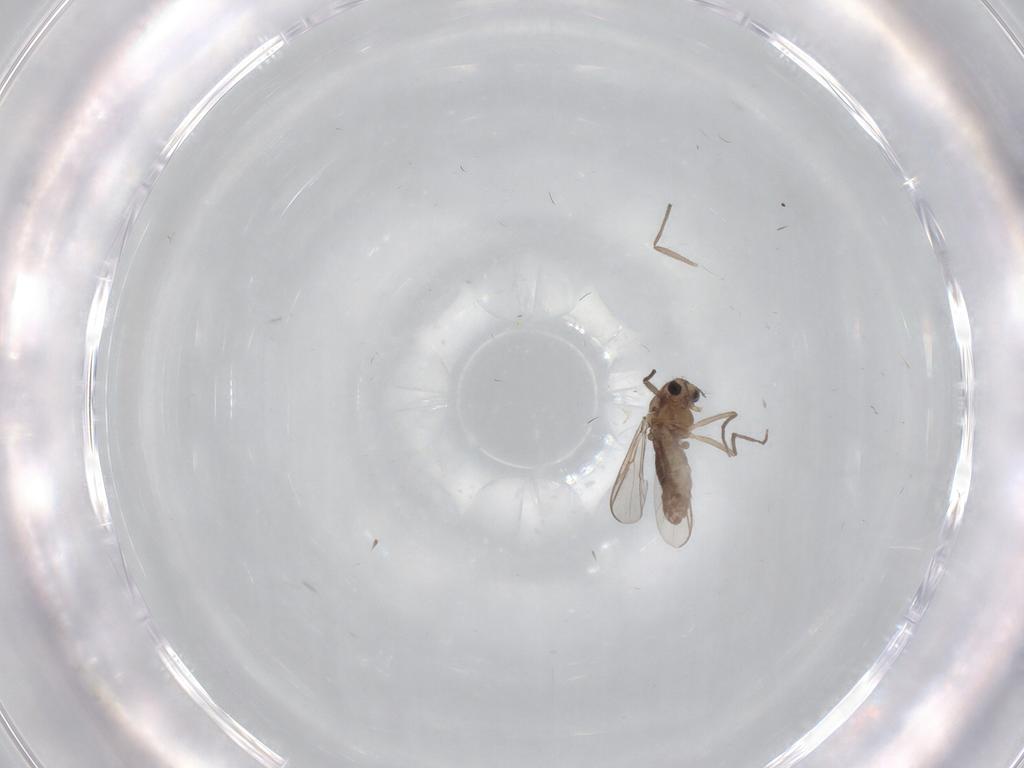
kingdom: Animalia
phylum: Arthropoda
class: Insecta
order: Diptera
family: Chironomidae
